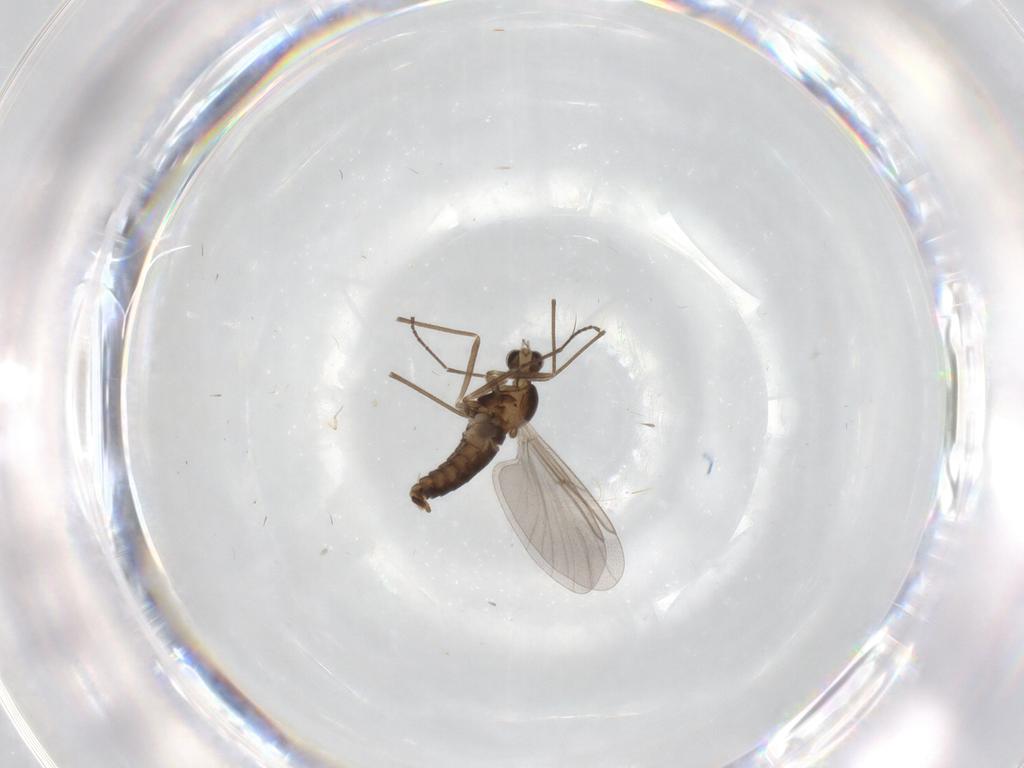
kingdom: Animalia
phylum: Arthropoda
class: Insecta
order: Diptera
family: Cecidomyiidae
